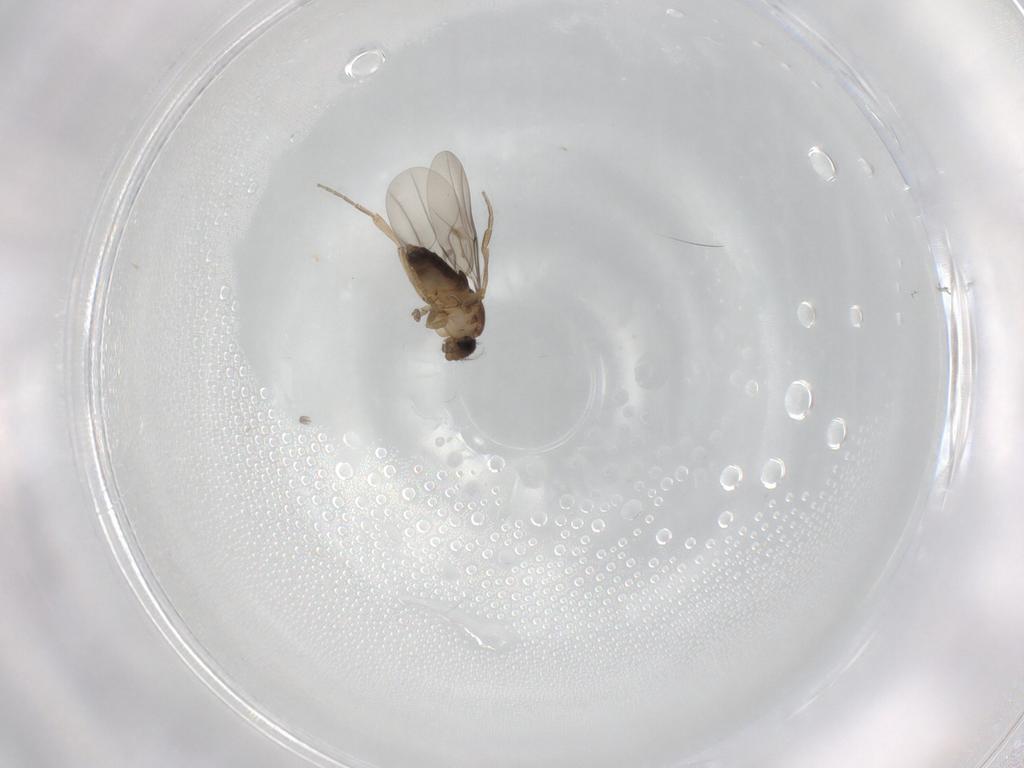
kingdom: Animalia
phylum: Arthropoda
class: Insecta
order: Diptera
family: Phoridae
